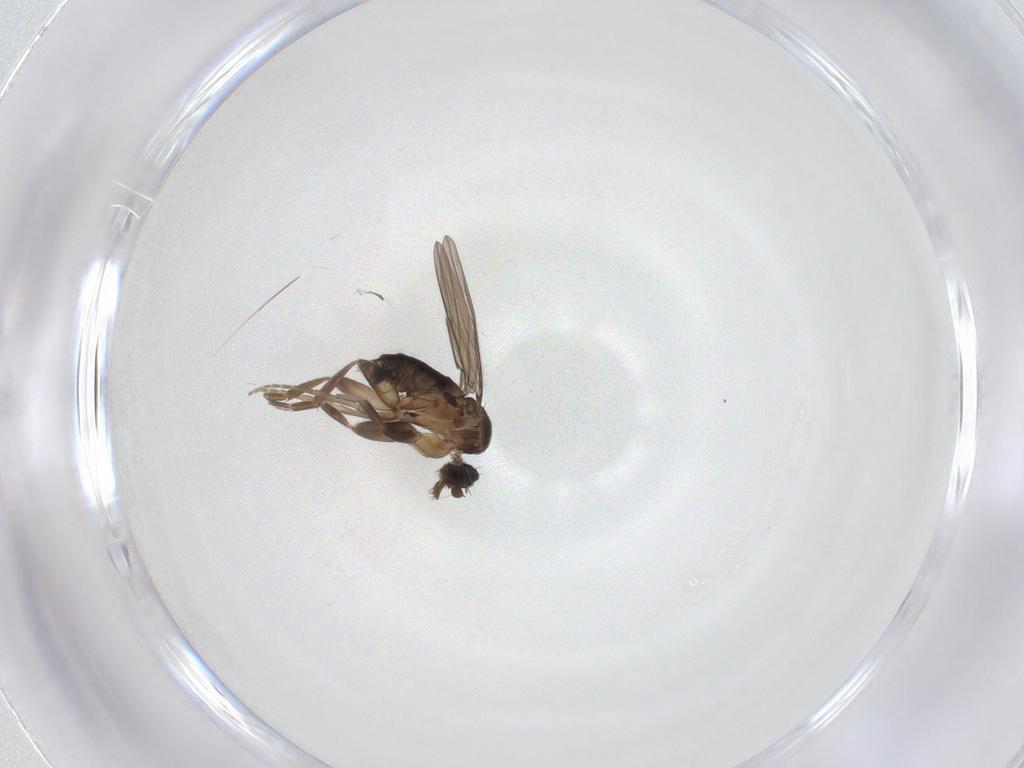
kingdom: Animalia
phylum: Arthropoda
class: Insecta
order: Diptera
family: Phoridae
